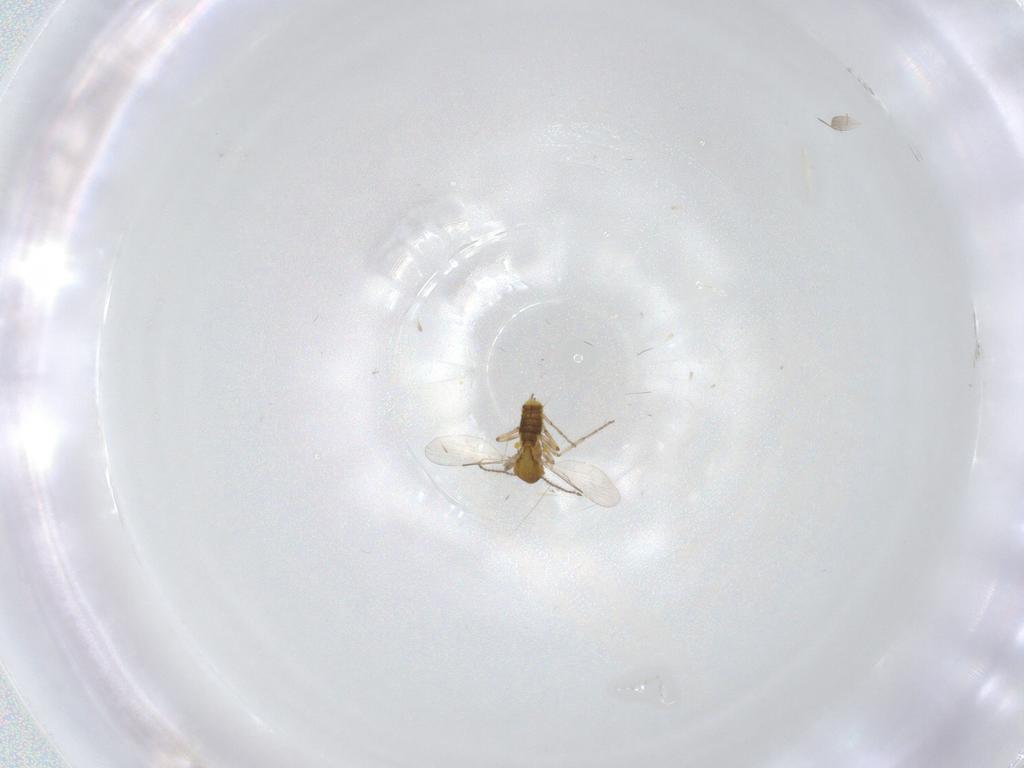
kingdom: Animalia
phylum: Arthropoda
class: Insecta
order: Diptera
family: Ceratopogonidae
